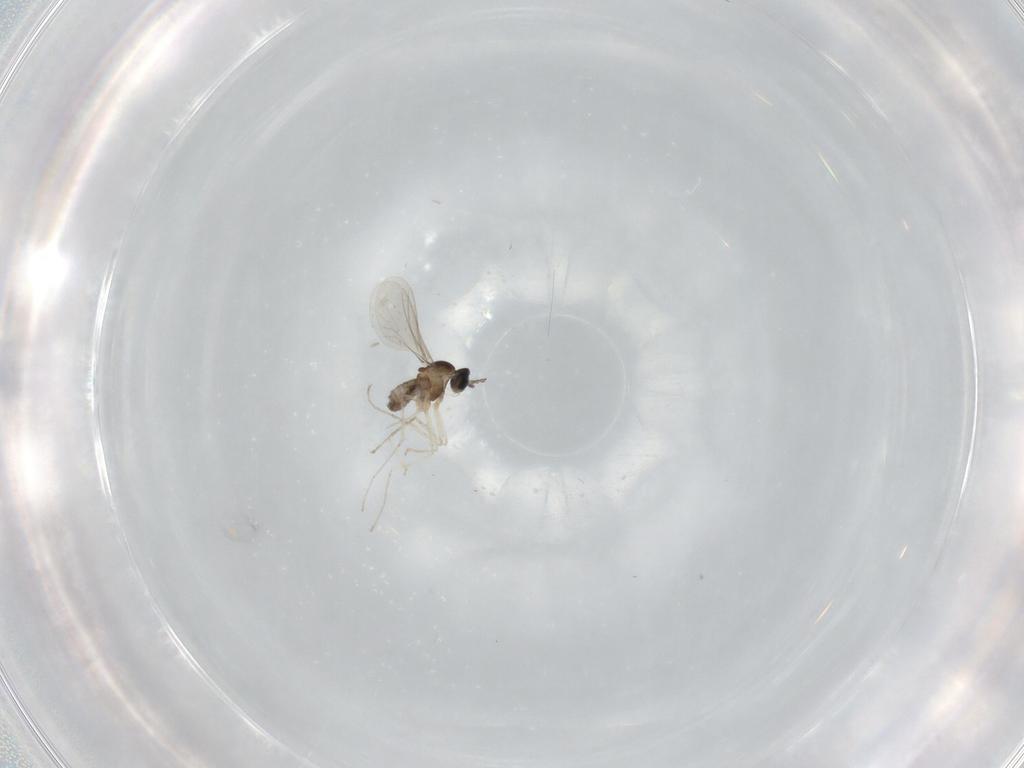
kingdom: Animalia
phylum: Arthropoda
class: Insecta
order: Diptera
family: Cecidomyiidae
